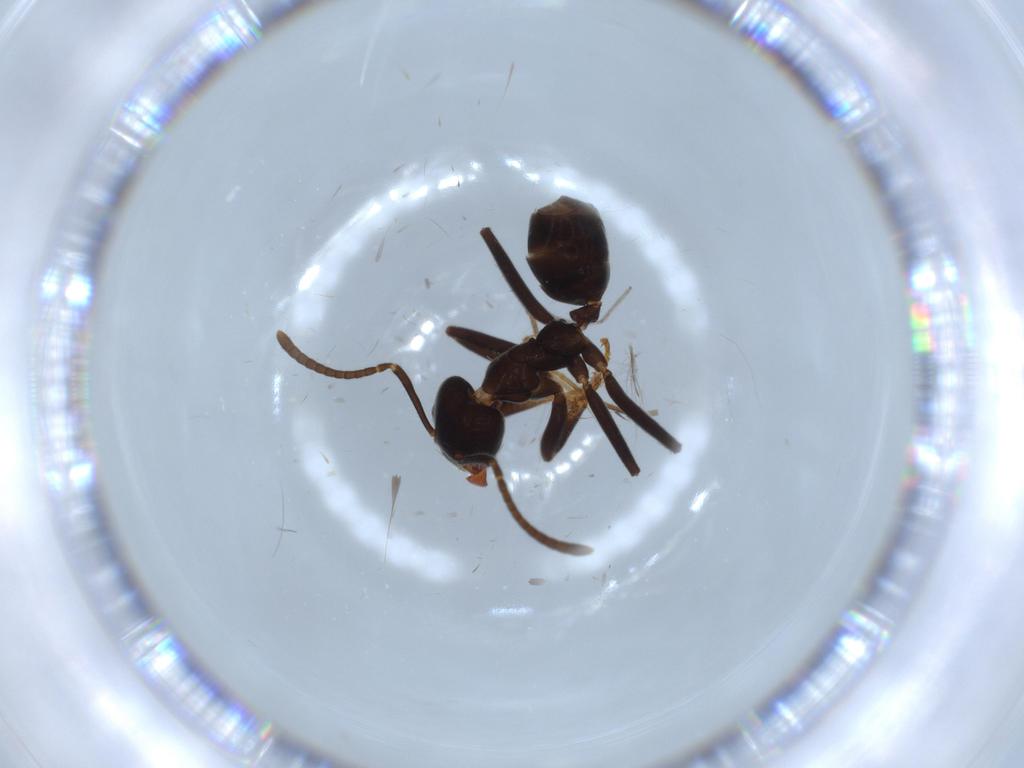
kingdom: Animalia
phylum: Arthropoda
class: Insecta
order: Hymenoptera
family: Formicidae
